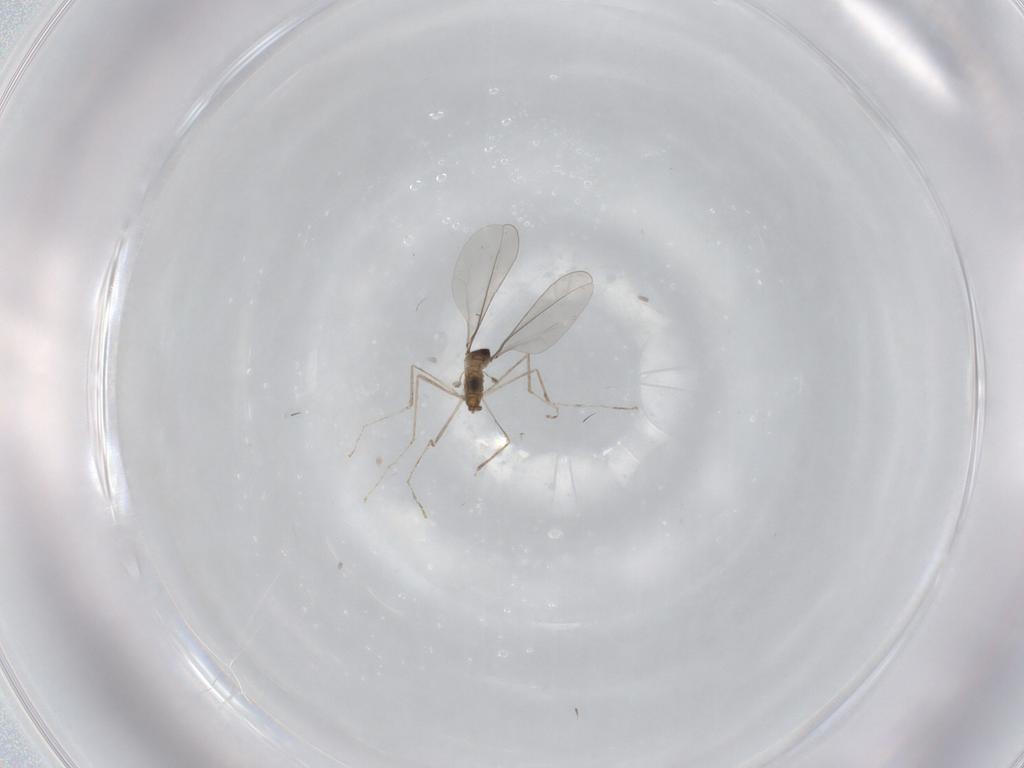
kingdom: Animalia
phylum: Arthropoda
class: Insecta
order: Diptera
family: Cecidomyiidae
